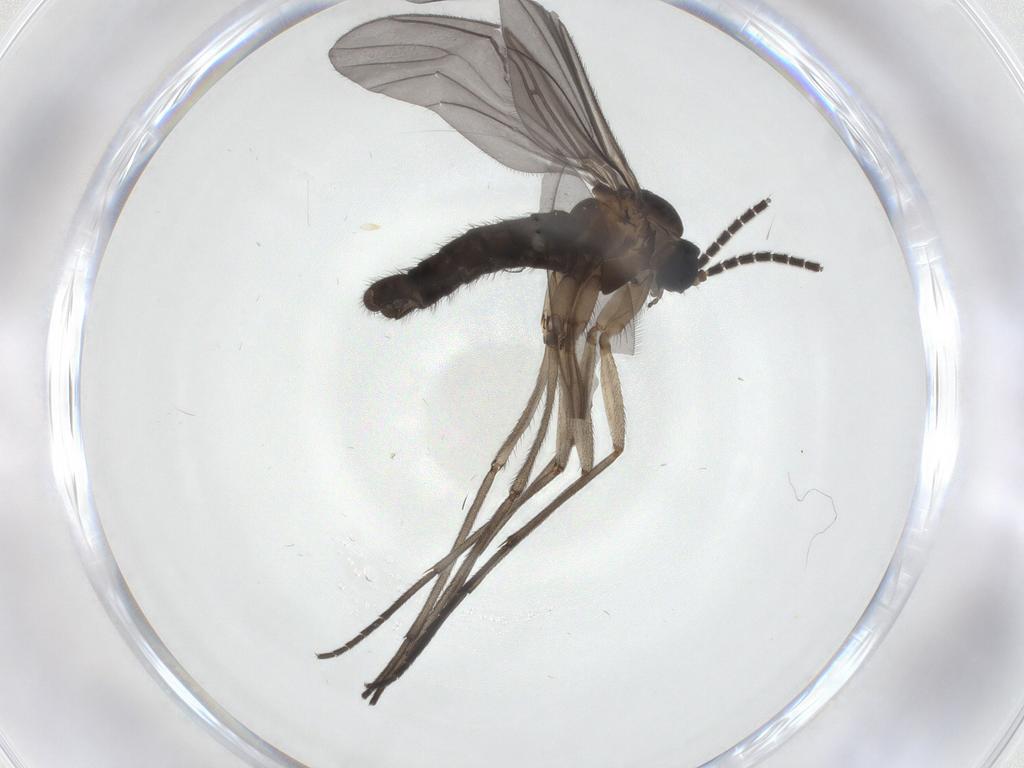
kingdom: Animalia
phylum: Arthropoda
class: Insecta
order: Diptera
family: Sciaridae
